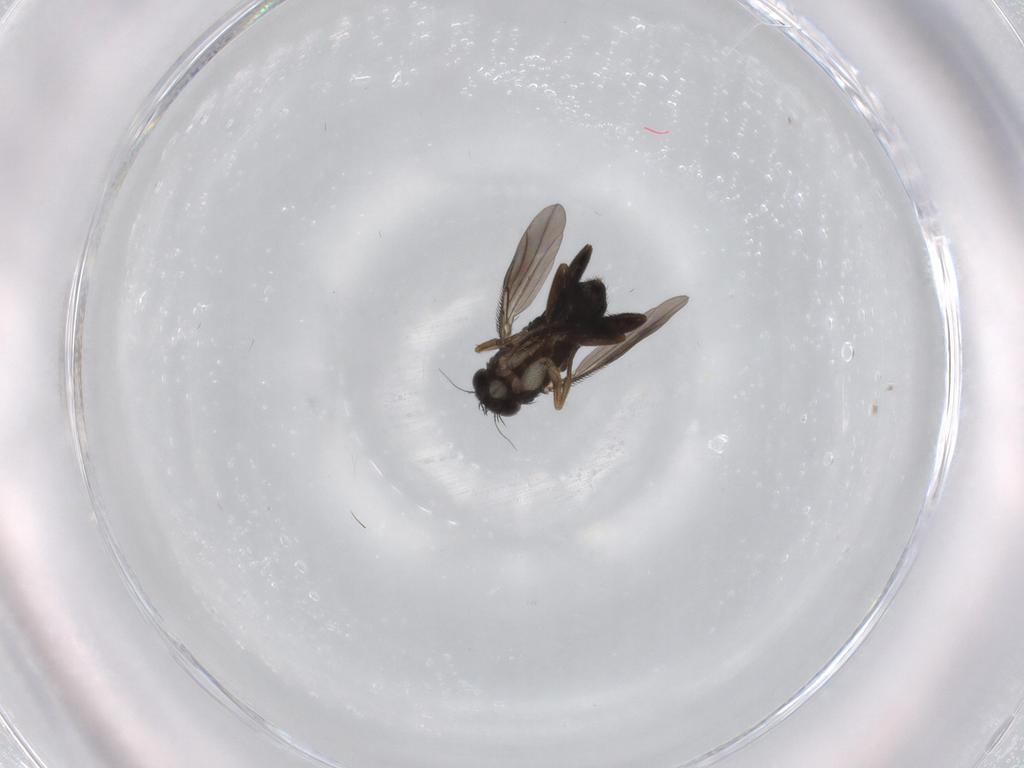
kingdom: Animalia
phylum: Arthropoda
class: Insecta
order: Diptera
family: Phoridae
